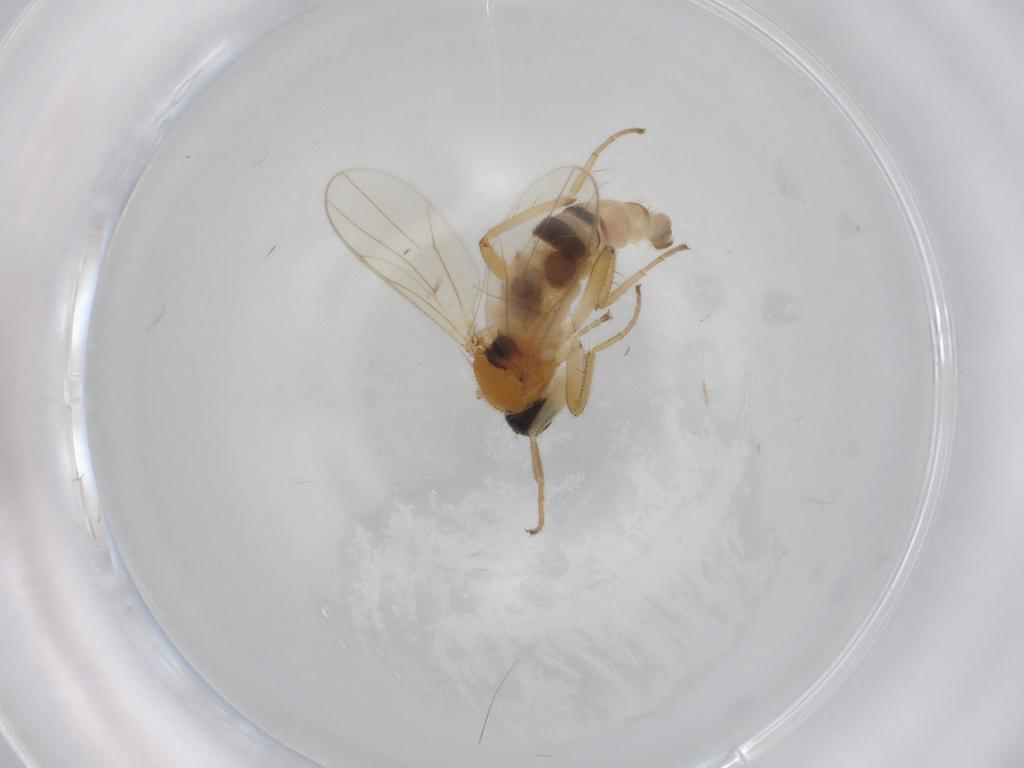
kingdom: Animalia
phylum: Arthropoda
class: Insecta
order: Diptera
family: Hybotidae
